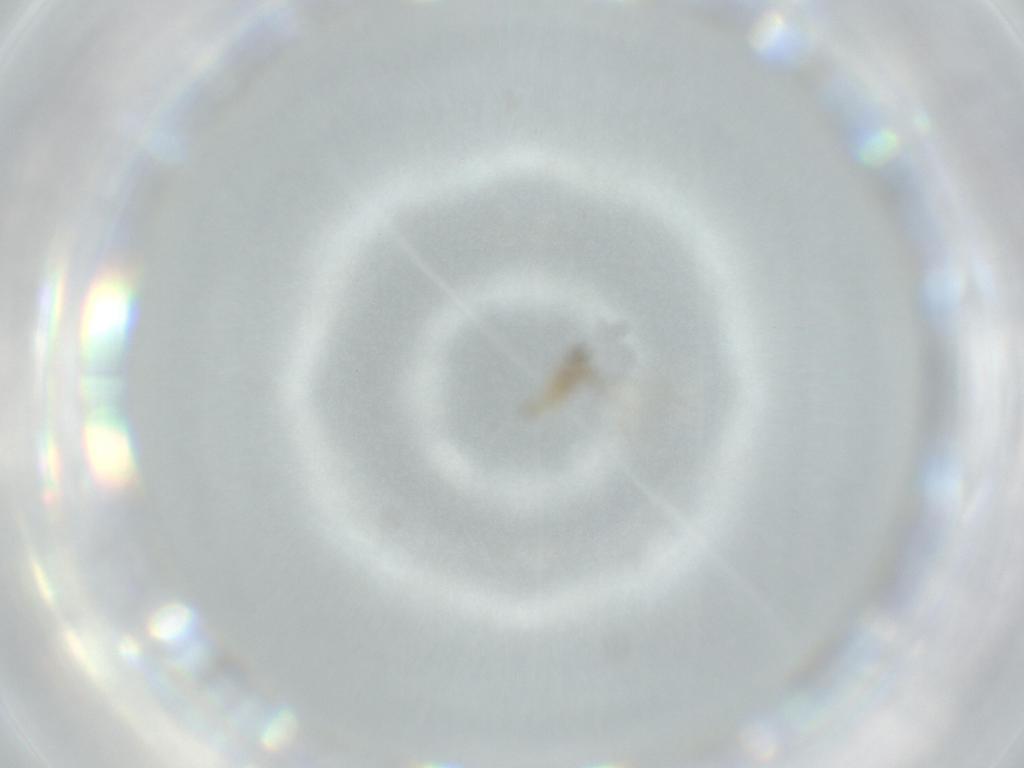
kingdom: Animalia
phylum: Arthropoda
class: Insecta
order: Diptera
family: Cecidomyiidae
